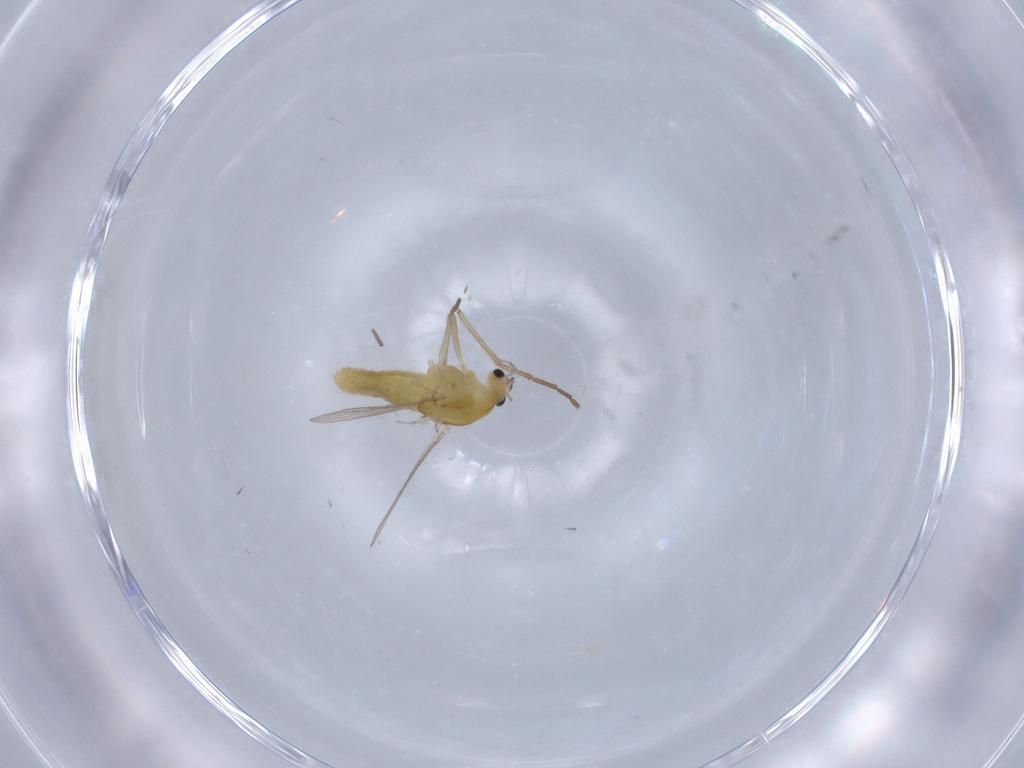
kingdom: Animalia
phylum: Arthropoda
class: Insecta
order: Diptera
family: Chironomidae
